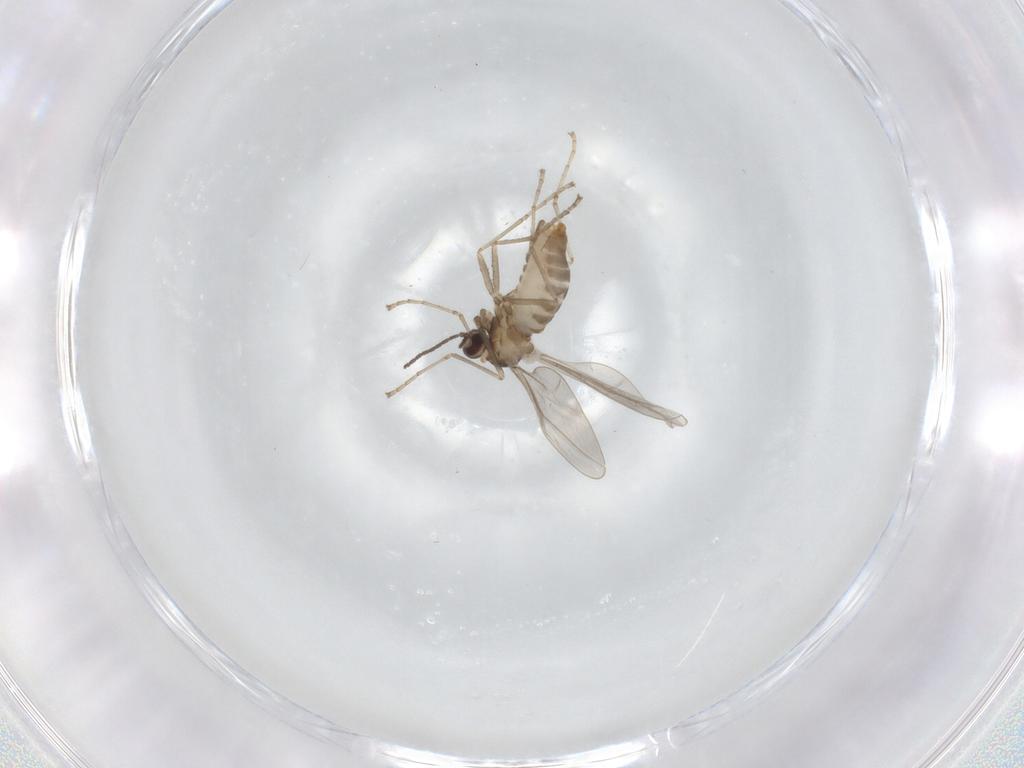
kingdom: Animalia
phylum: Arthropoda
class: Insecta
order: Diptera
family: Cecidomyiidae
